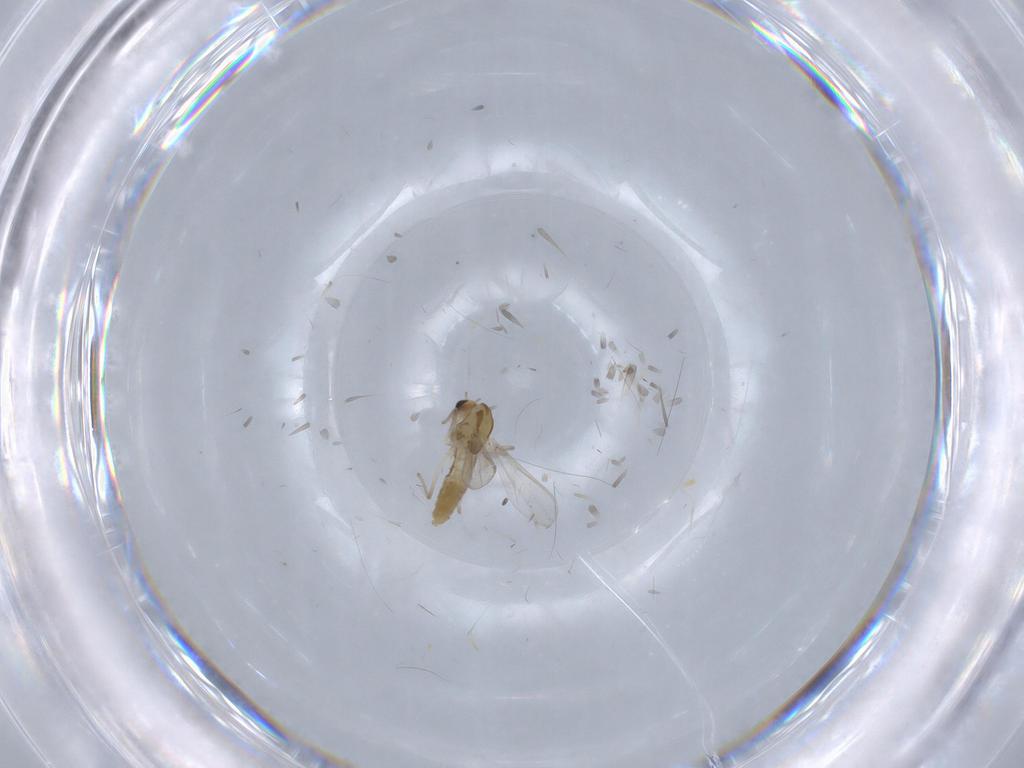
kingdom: Animalia
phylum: Arthropoda
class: Insecta
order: Diptera
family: Chironomidae
